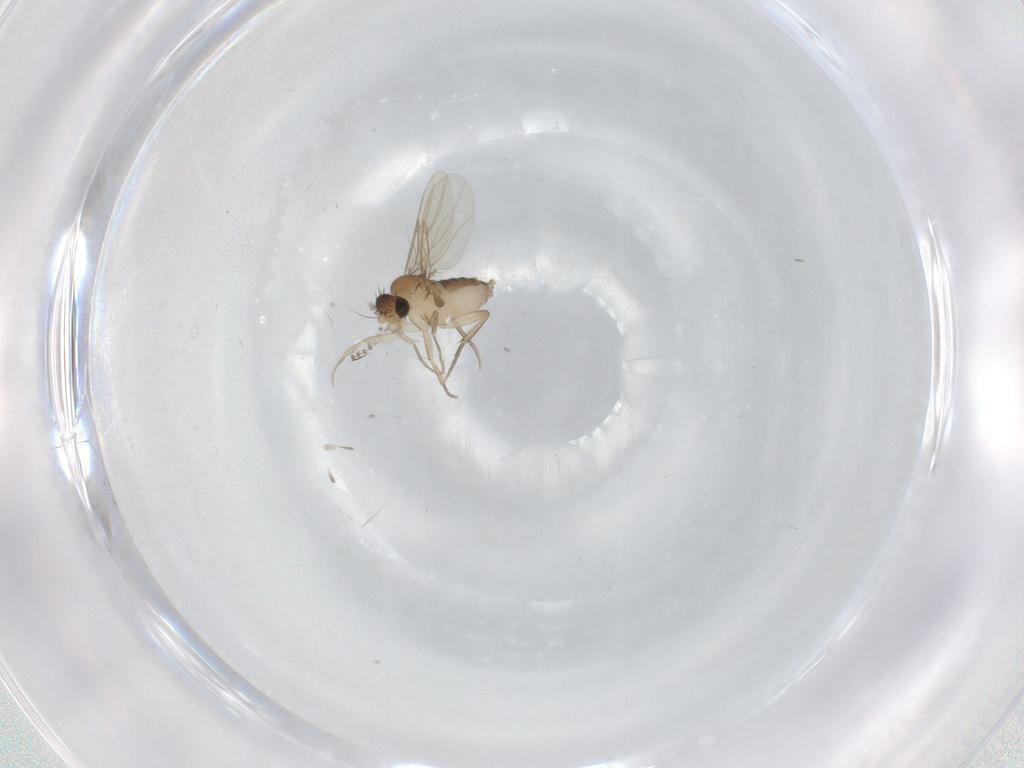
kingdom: Animalia
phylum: Arthropoda
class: Insecta
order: Diptera
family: Phoridae
